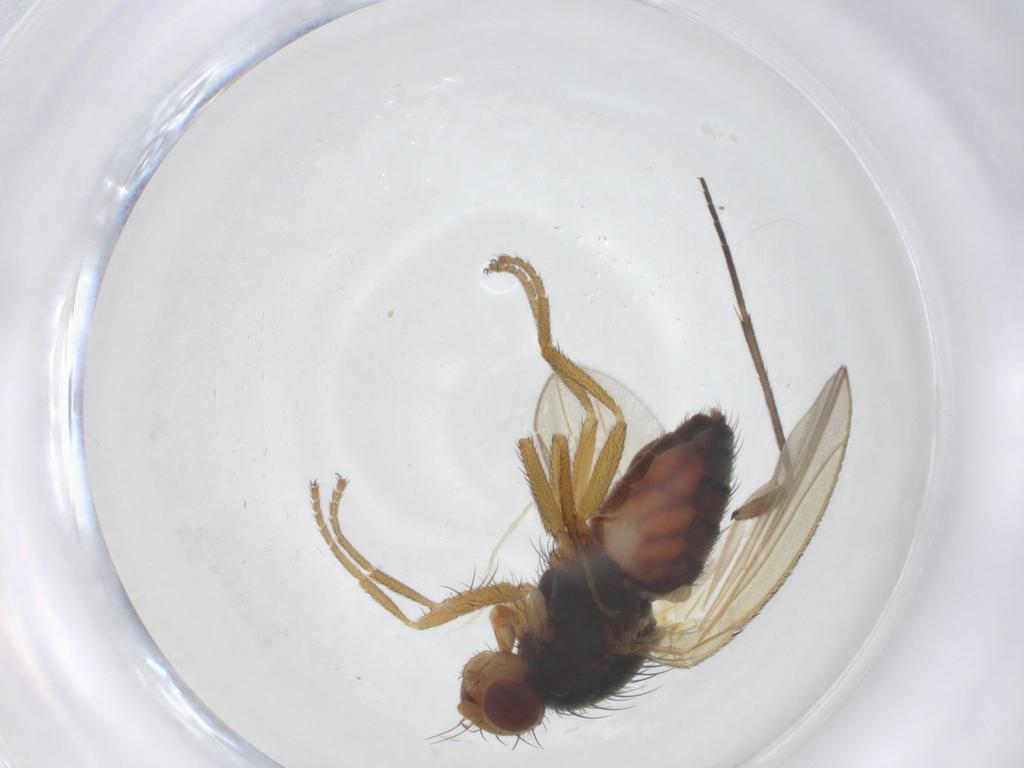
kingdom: Animalia
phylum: Arthropoda
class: Insecta
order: Diptera
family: Heleomyzidae
